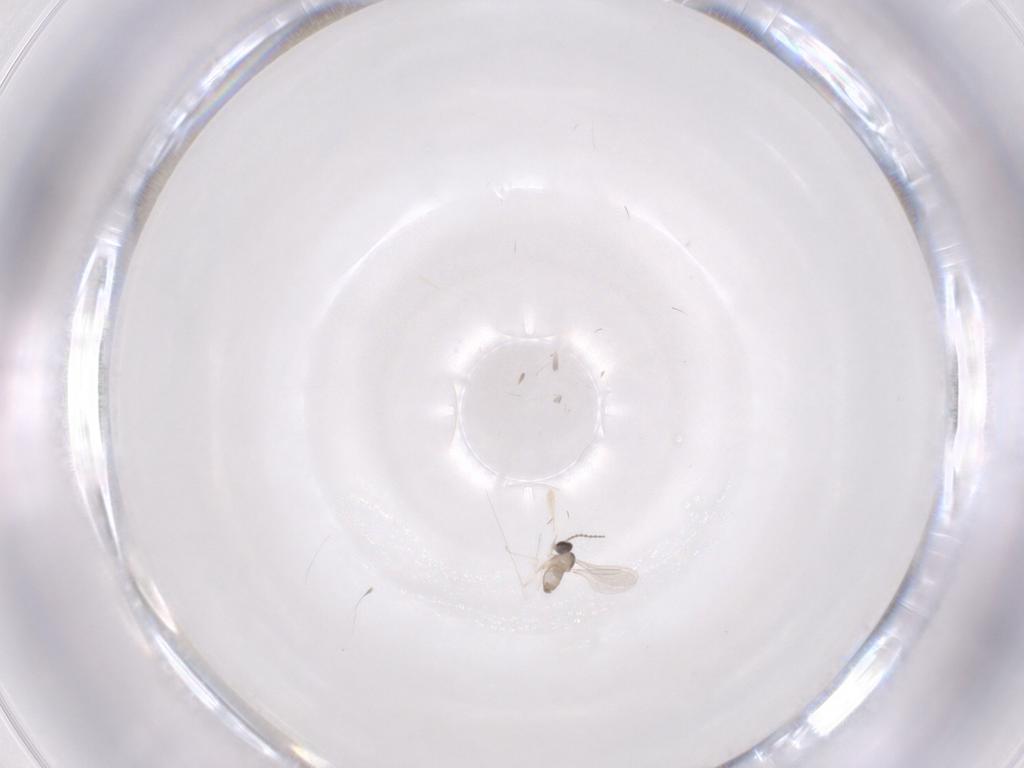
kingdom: Animalia
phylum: Arthropoda
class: Insecta
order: Diptera
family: Cecidomyiidae
